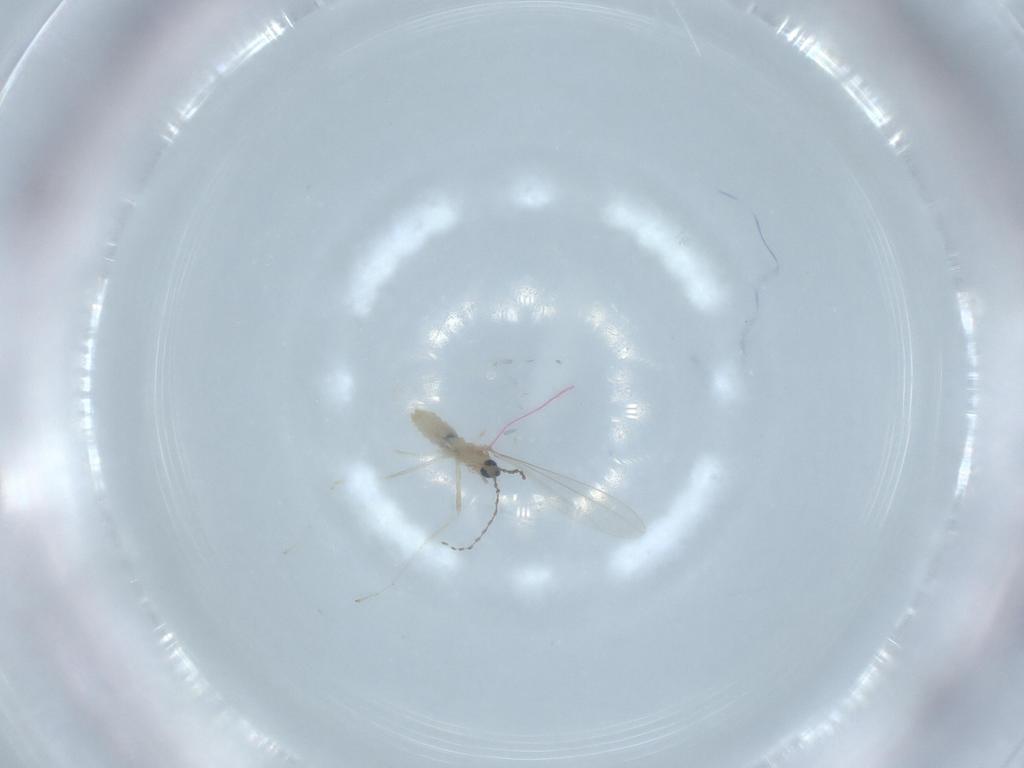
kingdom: Animalia
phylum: Arthropoda
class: Insecta
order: Diptera
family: Cecidomyiidae
